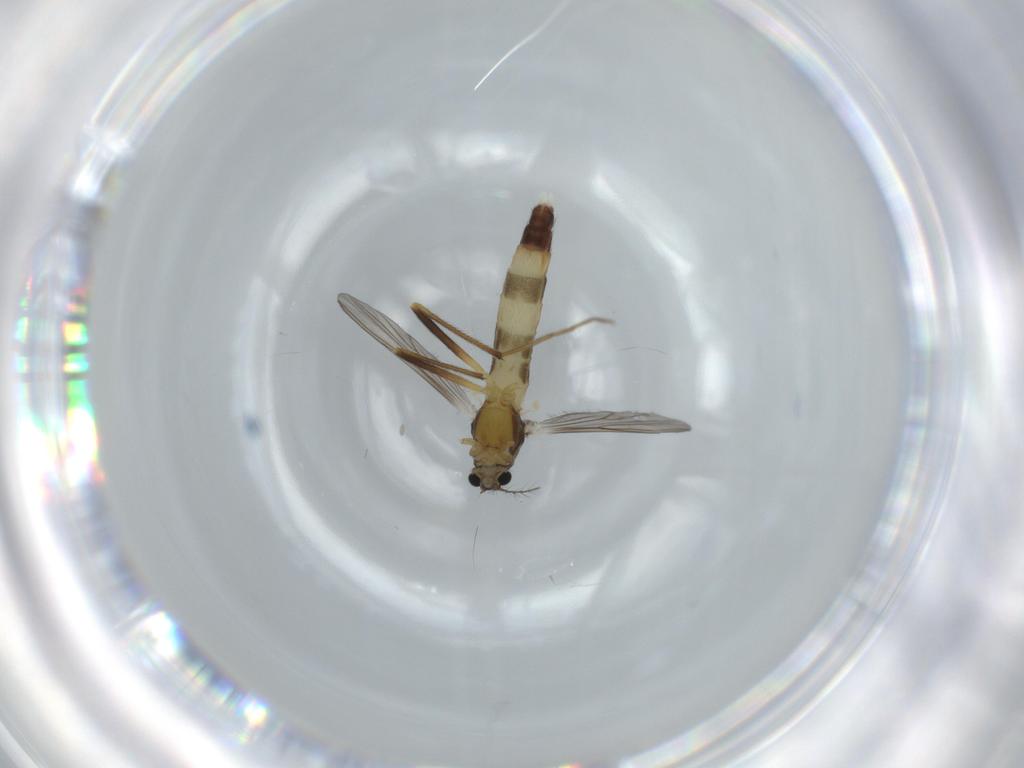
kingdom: Animalia
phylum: Arthropoda
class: Insecta
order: Diptera
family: Chironomidae
